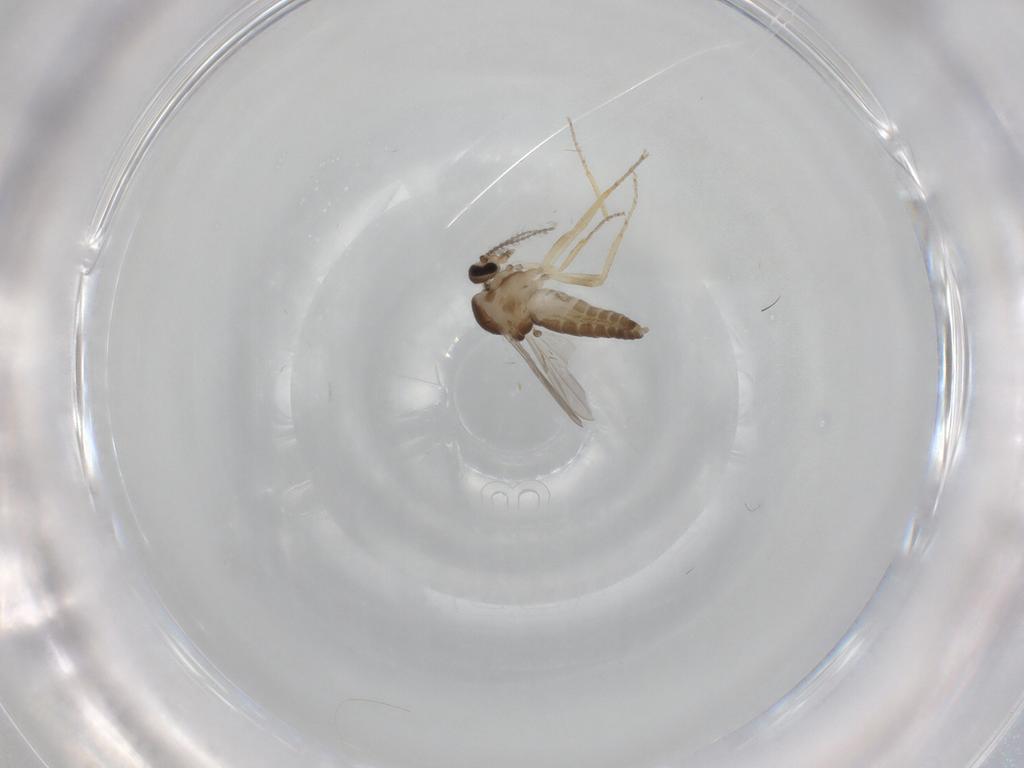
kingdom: Animalia
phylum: Arthropoda
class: Insecta
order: Diptera
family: Ceratopogonidae
